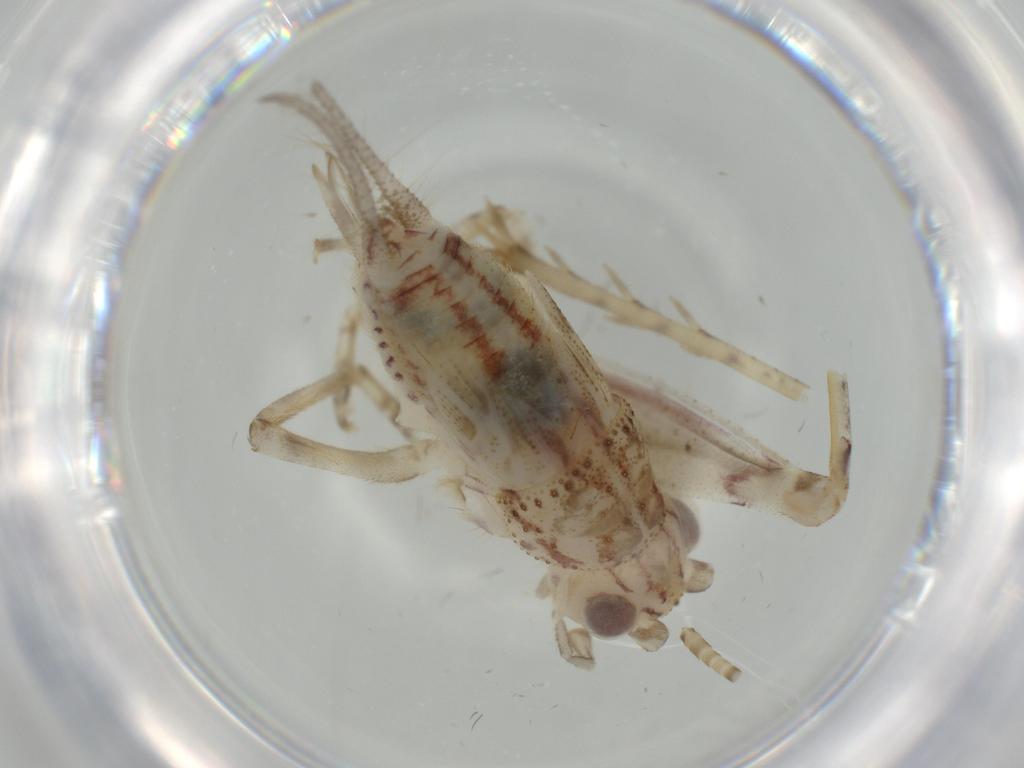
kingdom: Animalia
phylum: Arthropoda
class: Insecta
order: Orthoptera
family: Trigonidiidae
